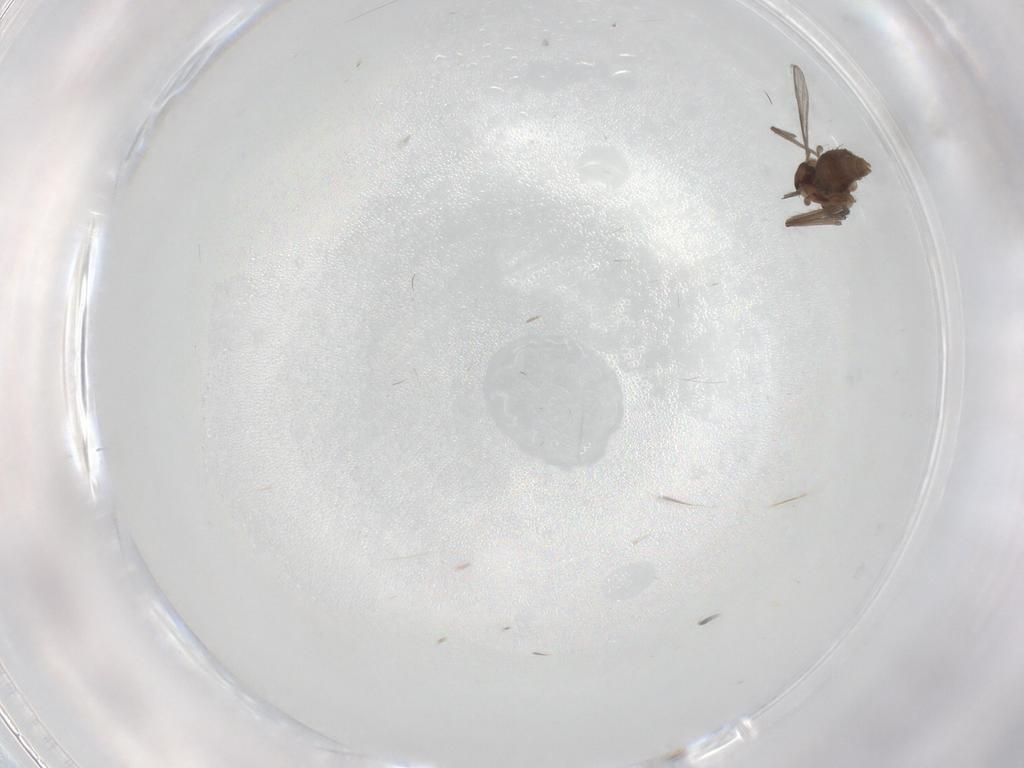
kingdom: Animalia
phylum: Arthropoda
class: Insecta
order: Diptera
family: Chironomidae
